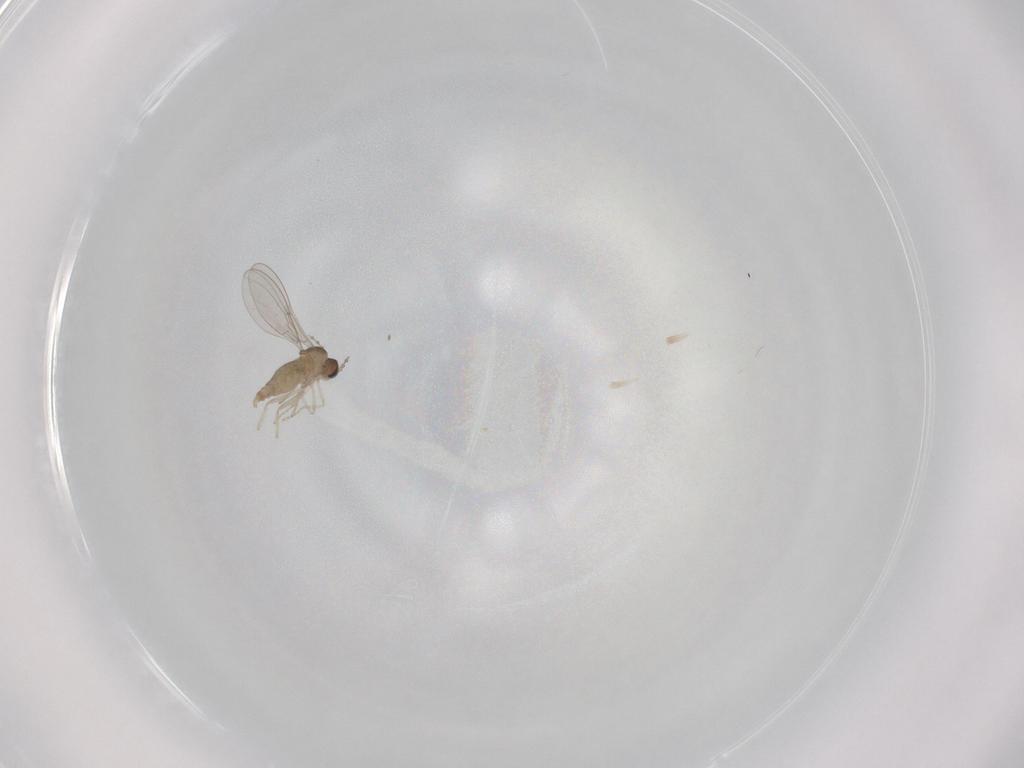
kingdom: Animalia
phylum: Arthropoda
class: Insecta
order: Diptera
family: Cecidomyiidae
